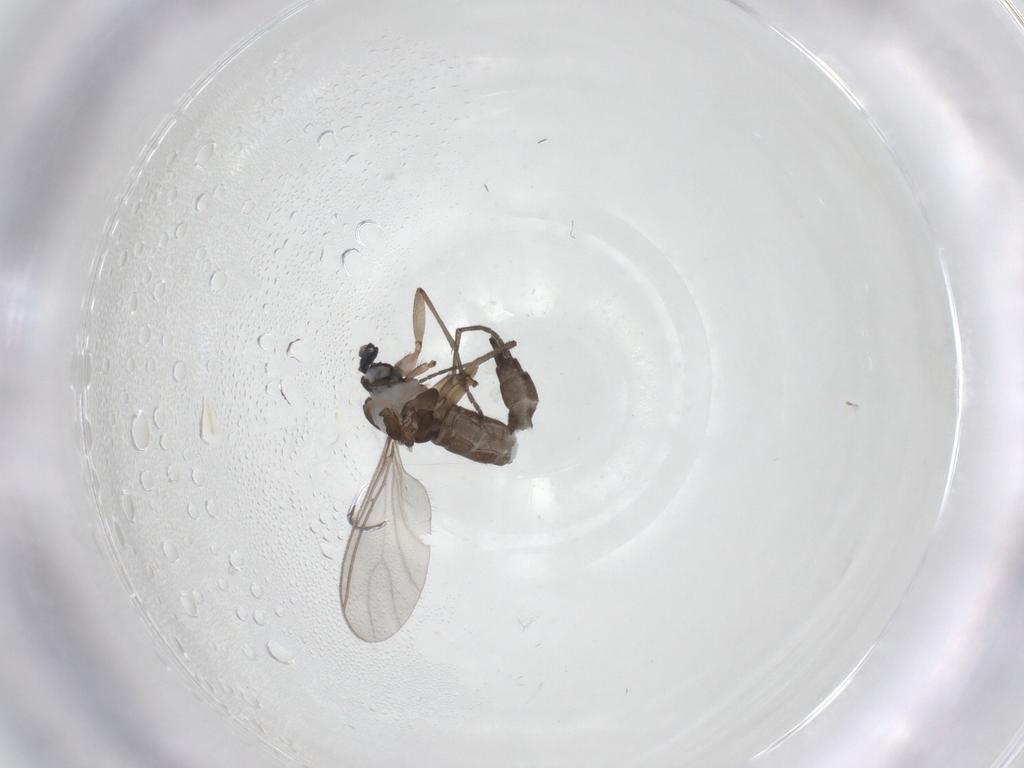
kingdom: Animalia
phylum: Arthropoda
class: Insecta
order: Diptera
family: Sciaridae
